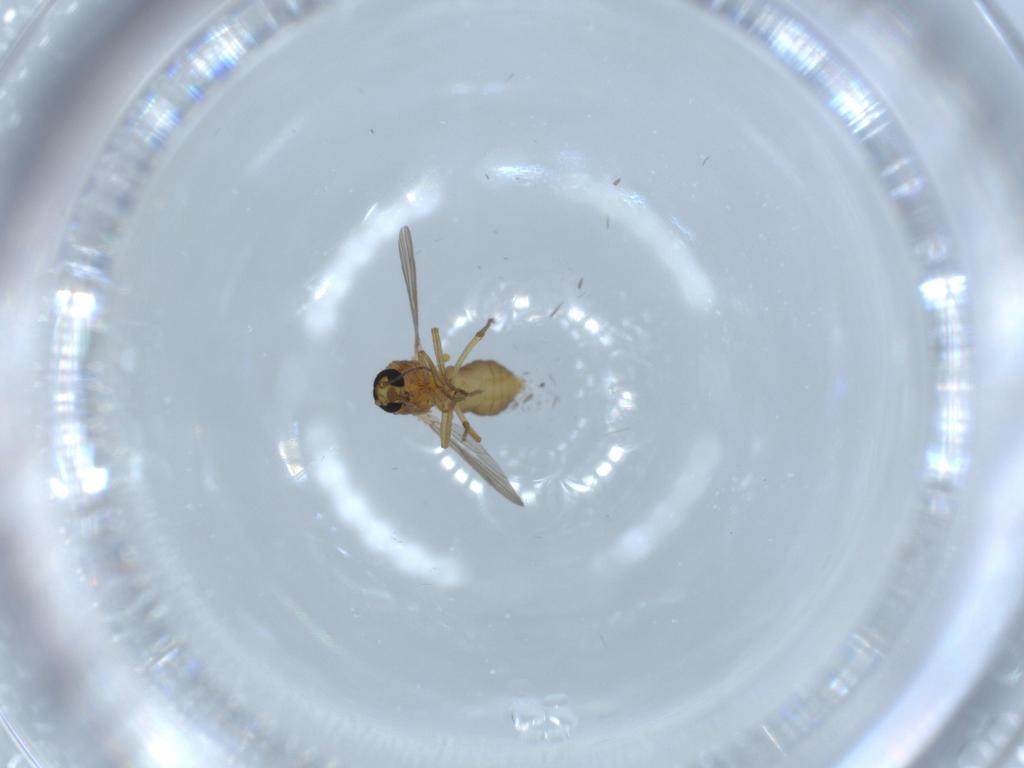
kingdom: Animalia
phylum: Arthropoda
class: Insecta
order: Diptera
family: Ceratopogonidae
